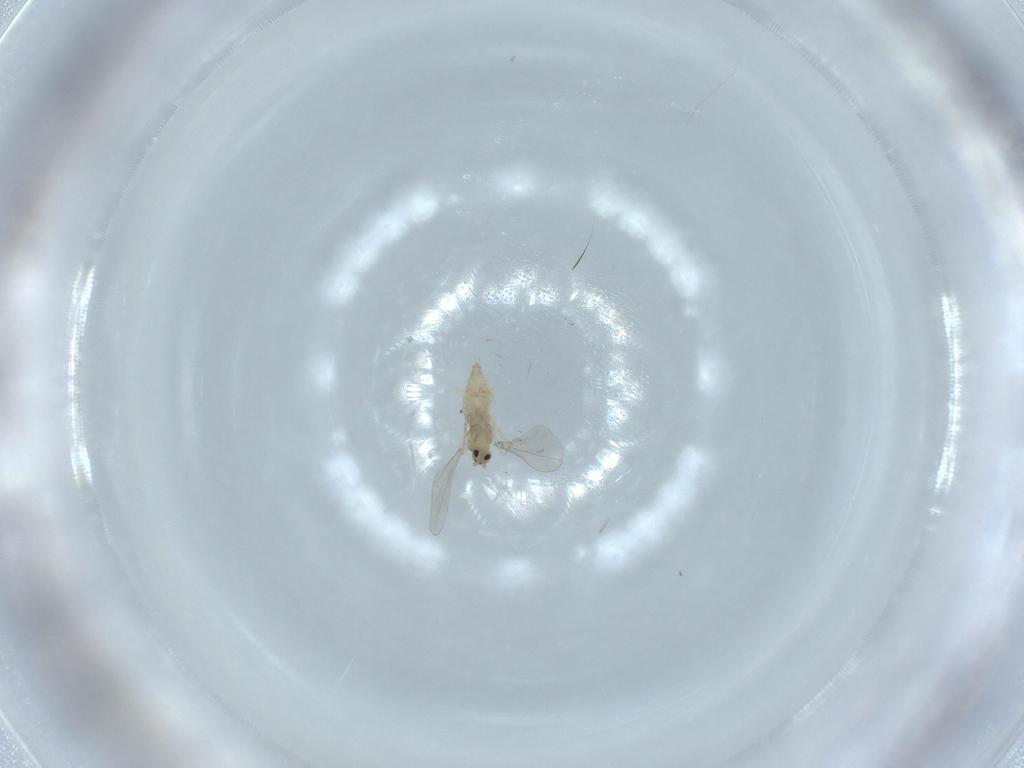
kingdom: Animalia
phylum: Arthropoda
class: Insecta
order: Diptera
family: Cecidomyiidae
